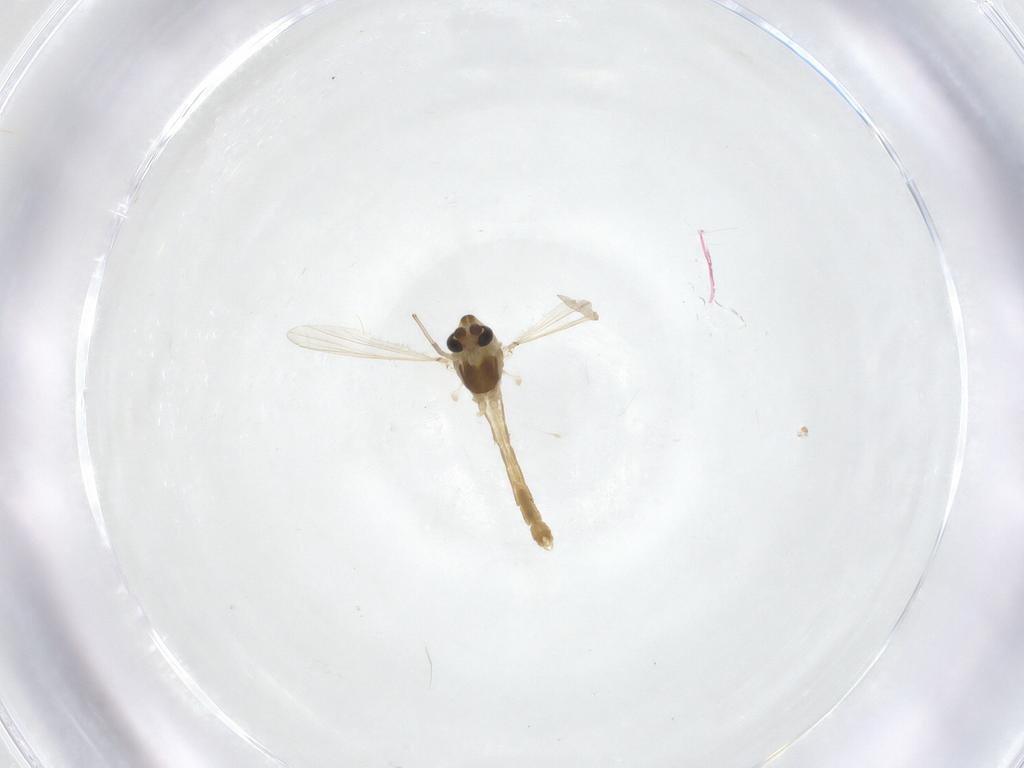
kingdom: Animalia
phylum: Arthropoda
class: Insecta
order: Diptera
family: Chironomidae
